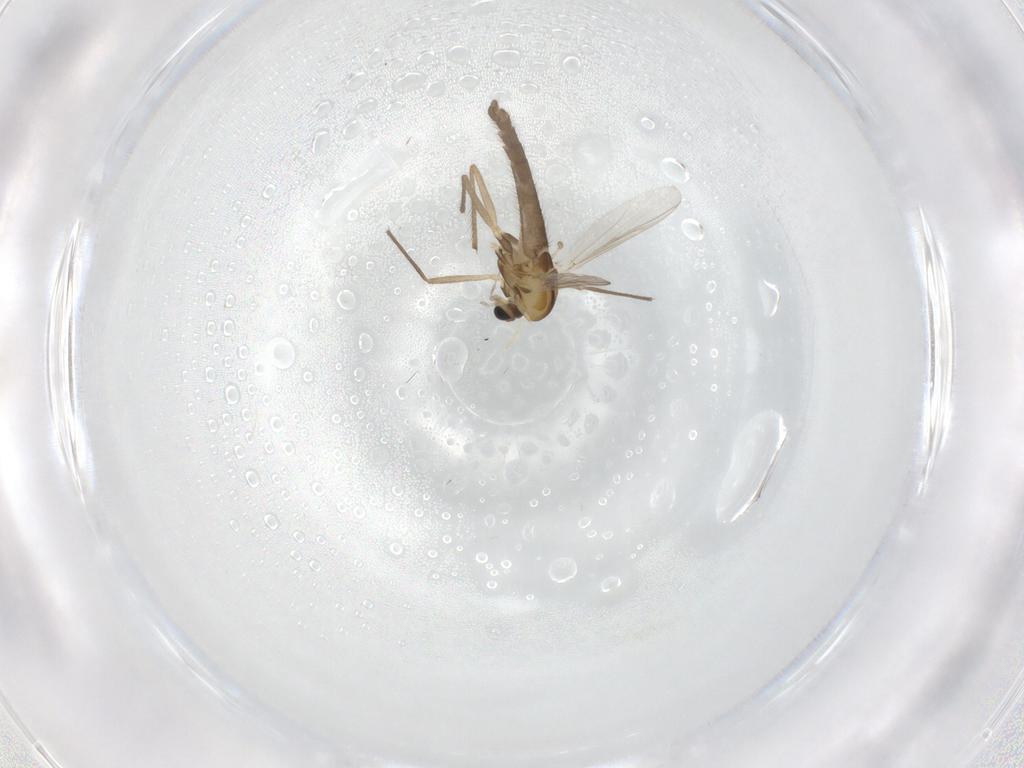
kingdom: Animalia
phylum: Arthropoda
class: Insecta
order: Diptera
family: Chironomidae
